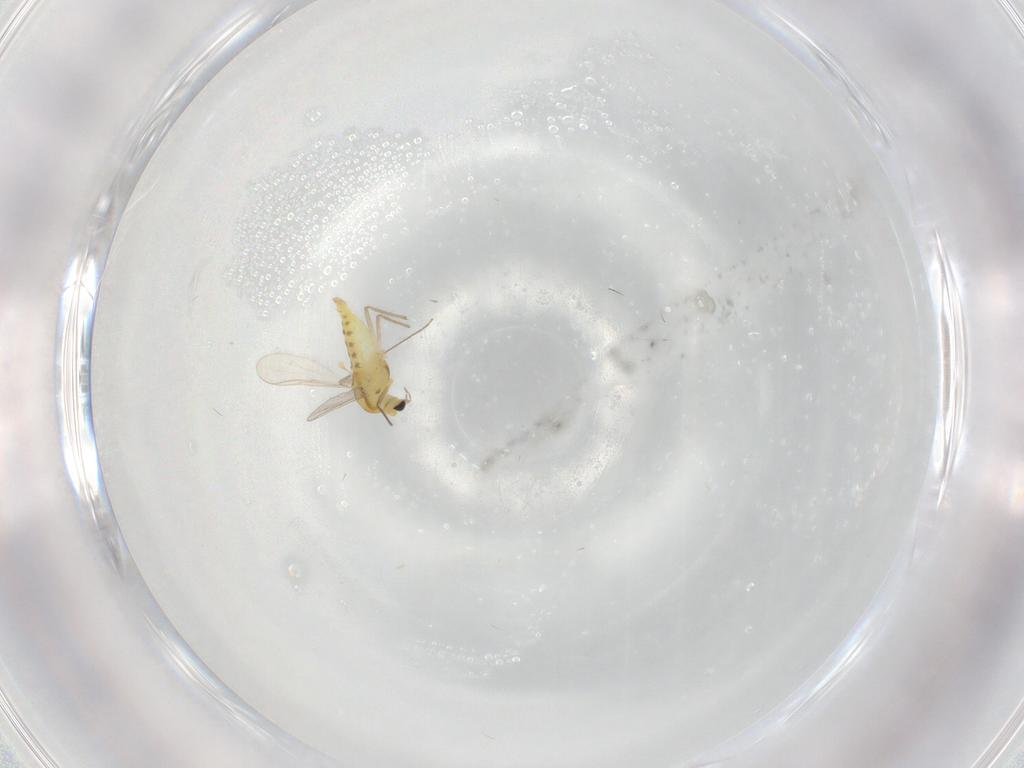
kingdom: Animalia
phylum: Arthropoda
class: Insecta
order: Diptera
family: Chironomidae
